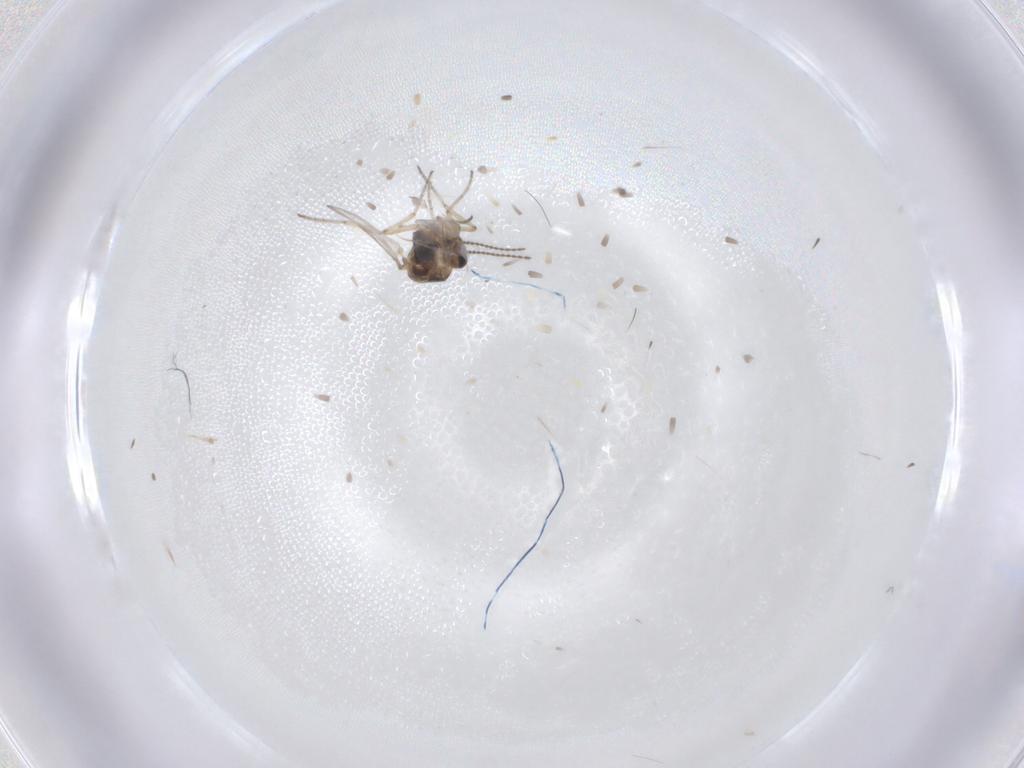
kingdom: Animalia
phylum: Arthropoda
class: Insecta
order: Diptera
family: Ceratopogonidae
